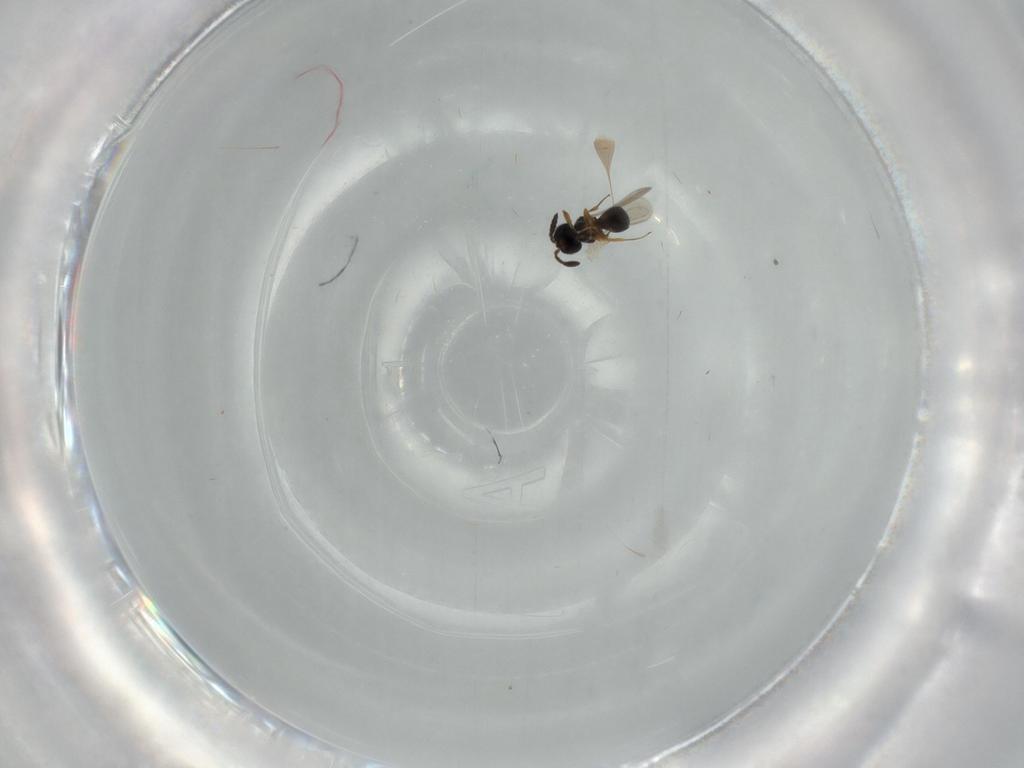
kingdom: Animalia
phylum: Arthropoda
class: Insecta
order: Hymenoptera
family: Scelionidae
